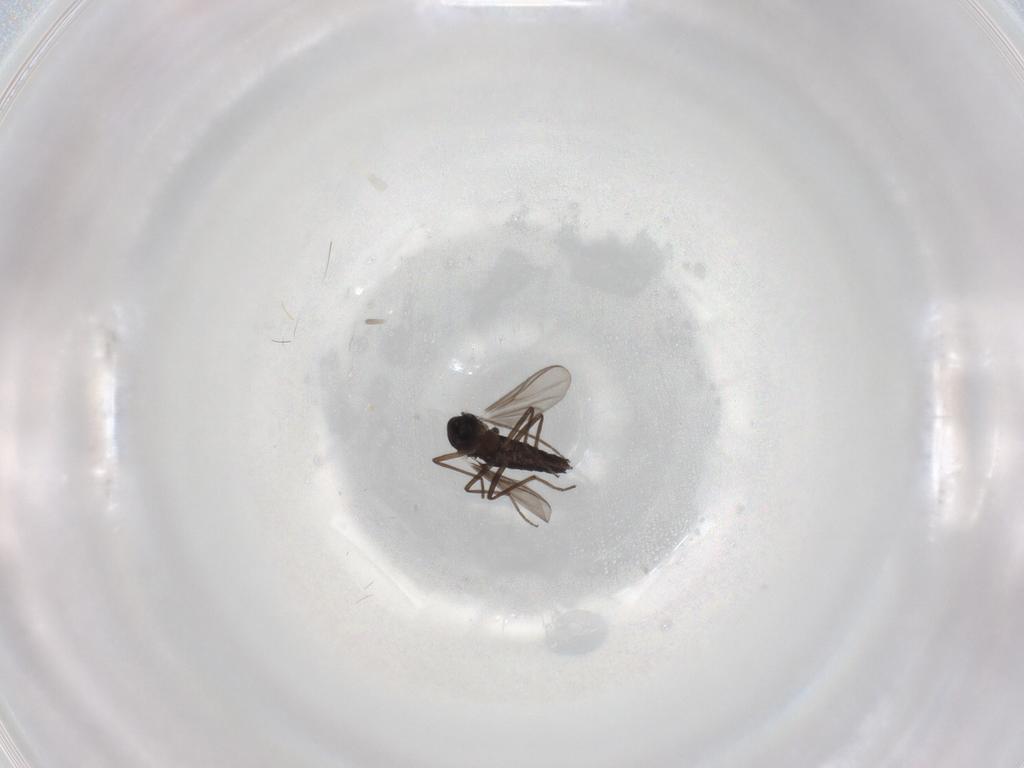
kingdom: Animalia
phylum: Arthropoda
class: Insecta
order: Diptera
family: Chironomidae
